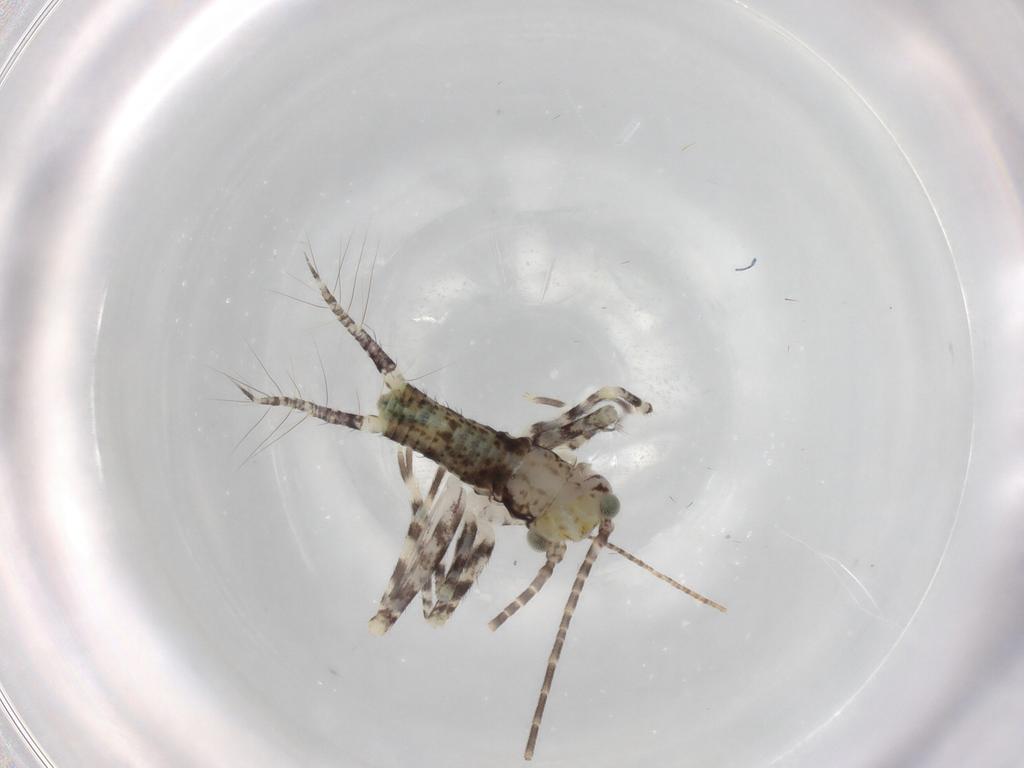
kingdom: Animalia
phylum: Arthropoda
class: Insecta
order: Orthoptera
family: Gryllidae
